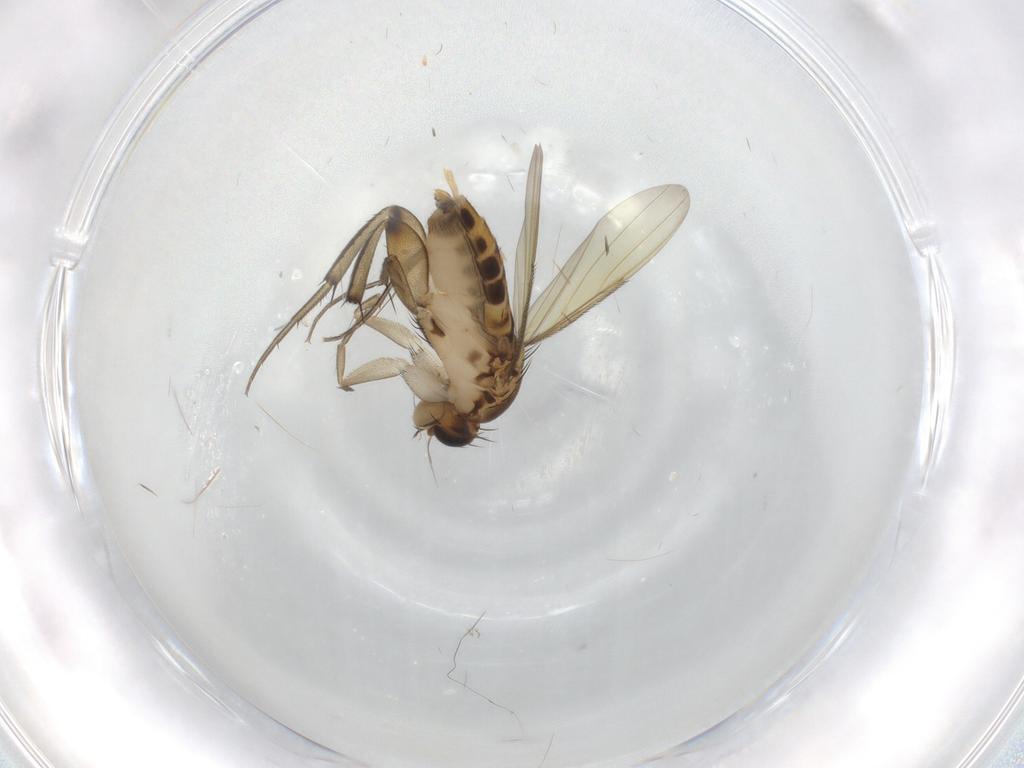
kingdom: Animalia
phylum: Arthropoda
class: Insecta
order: Diptera
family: Phoridae
